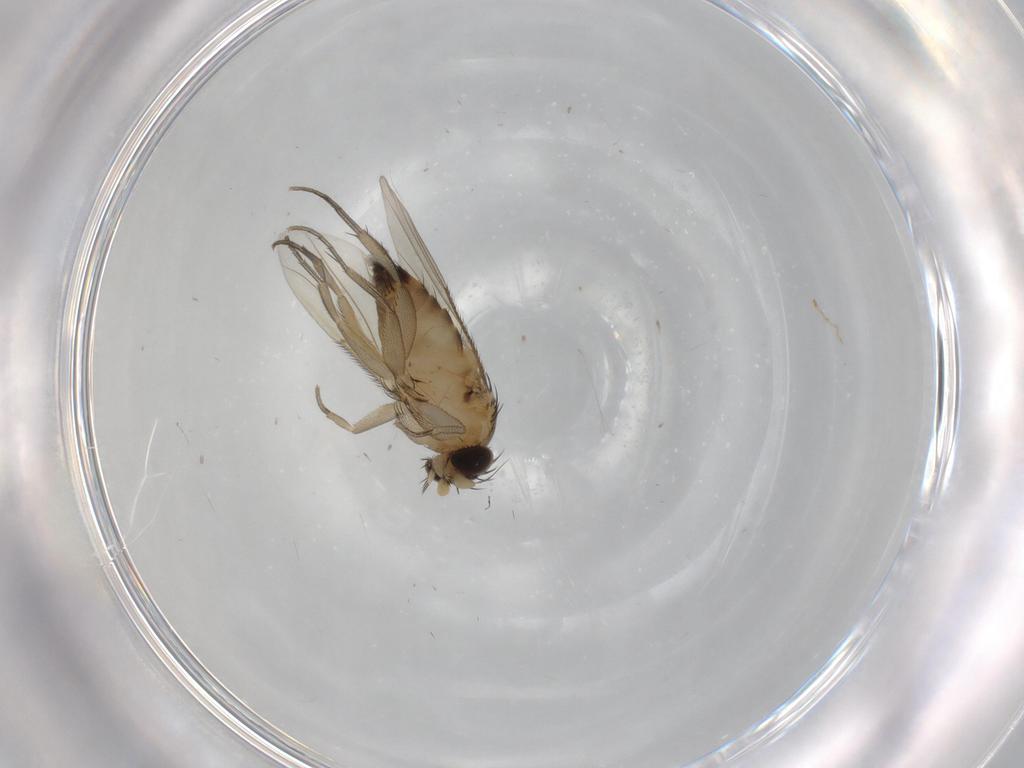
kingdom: Animalia
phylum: Arthropoda
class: Insecta
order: Diptera
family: Phoridae
